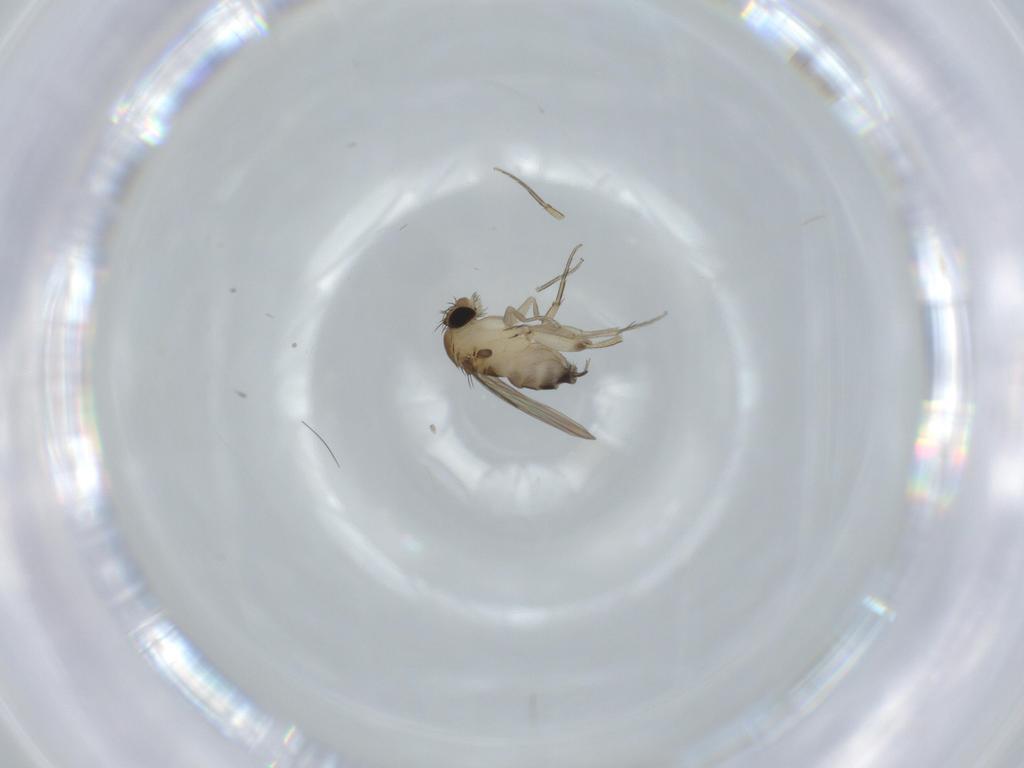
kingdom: Animalia
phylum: Arthropoda
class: Insecta
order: Diptera
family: Phoridae
